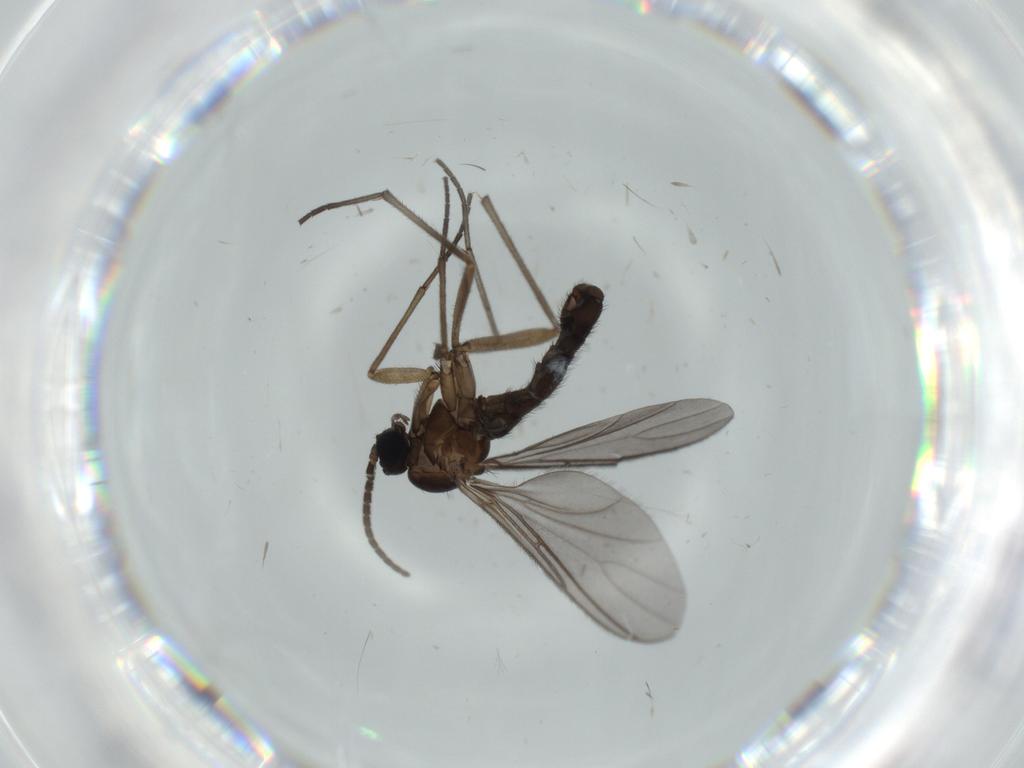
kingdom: Animalia
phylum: Arthropoda
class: Insecta
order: Diptera
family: Sciaridae
